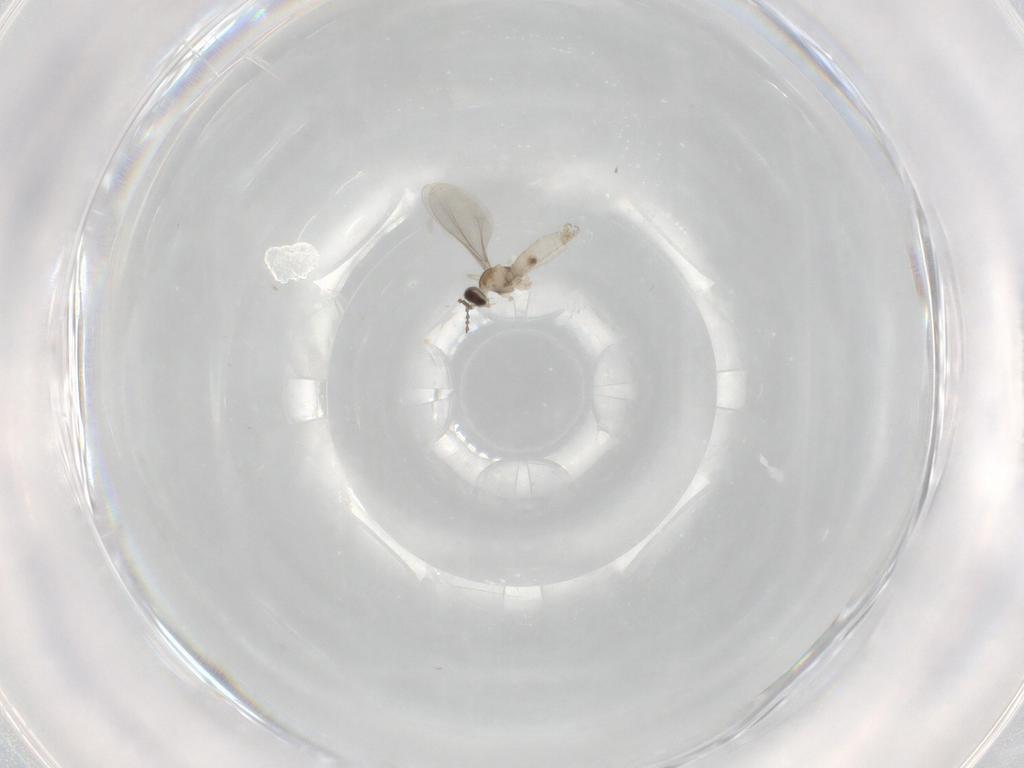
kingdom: Animalia
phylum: Arthropoda
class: Insecta
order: Diptera
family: Cecidomyiidae
